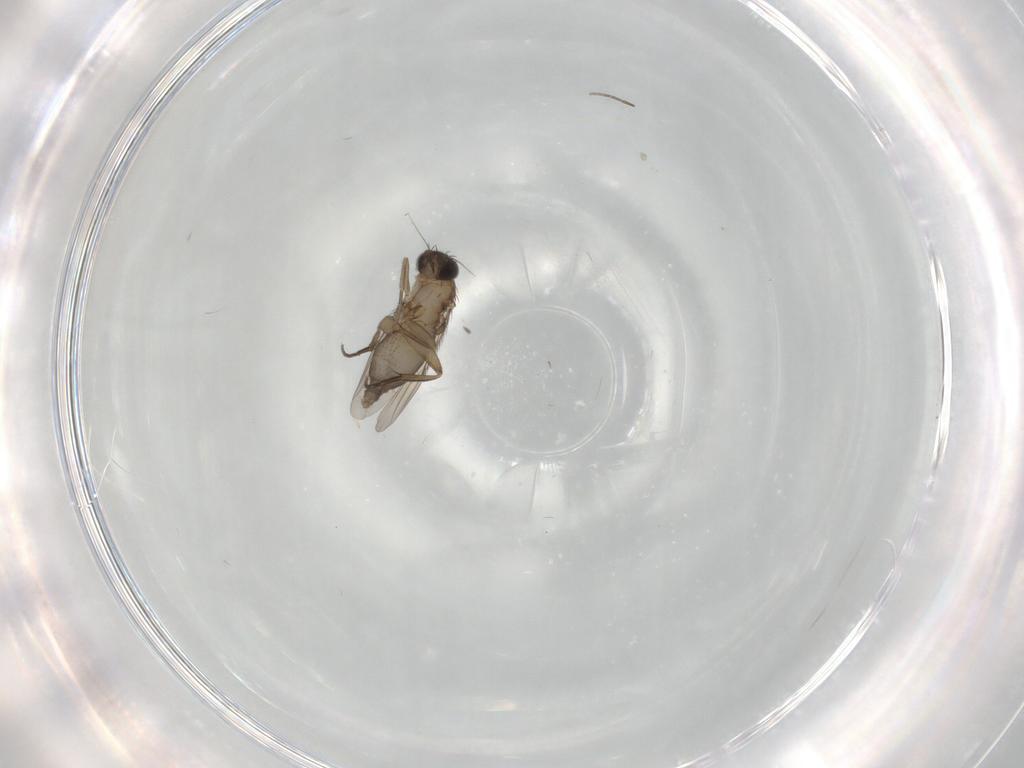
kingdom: Animalia
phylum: Arthropoda
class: Insecta
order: Diptera
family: Phoridae
